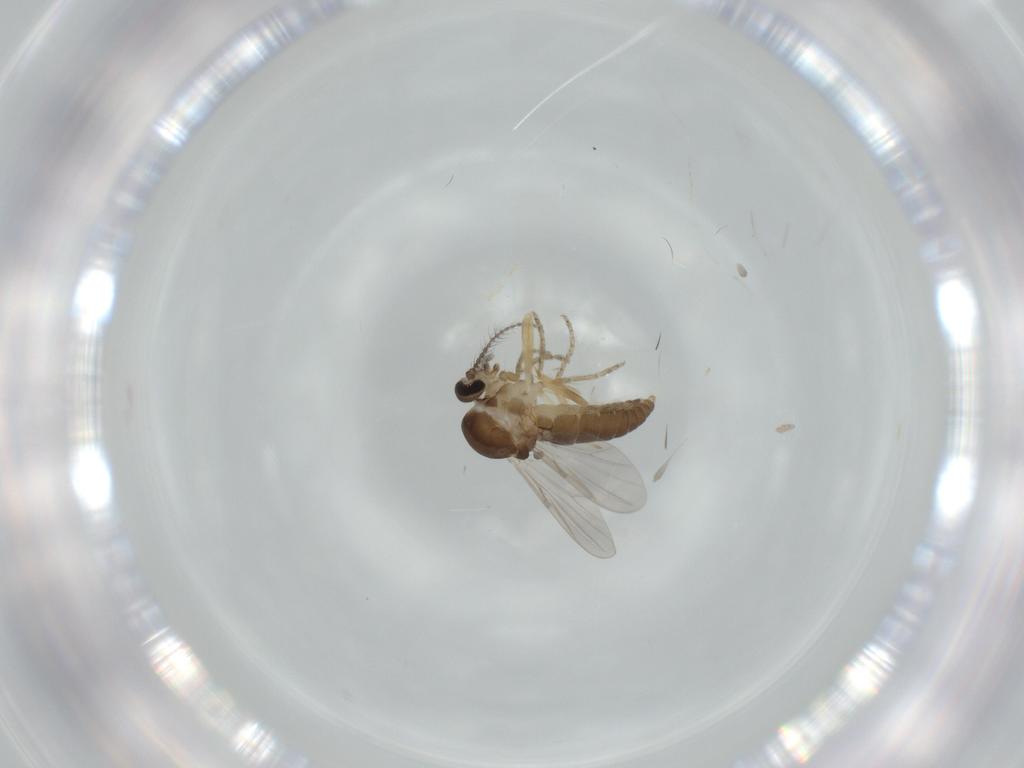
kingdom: Animalia
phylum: Arthropoda
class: Insecta
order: Diptera
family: Ceratopogonidae
